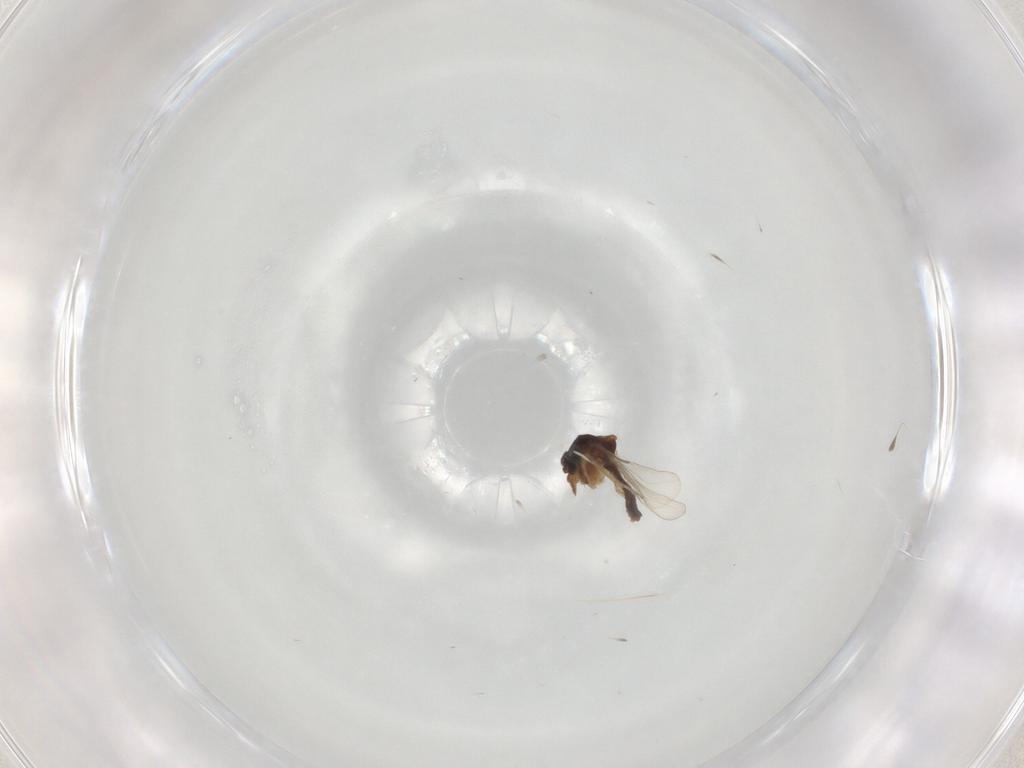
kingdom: Animalia
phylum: Arthropoda
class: Insecta
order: Diptera
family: Ceratopogonidae
